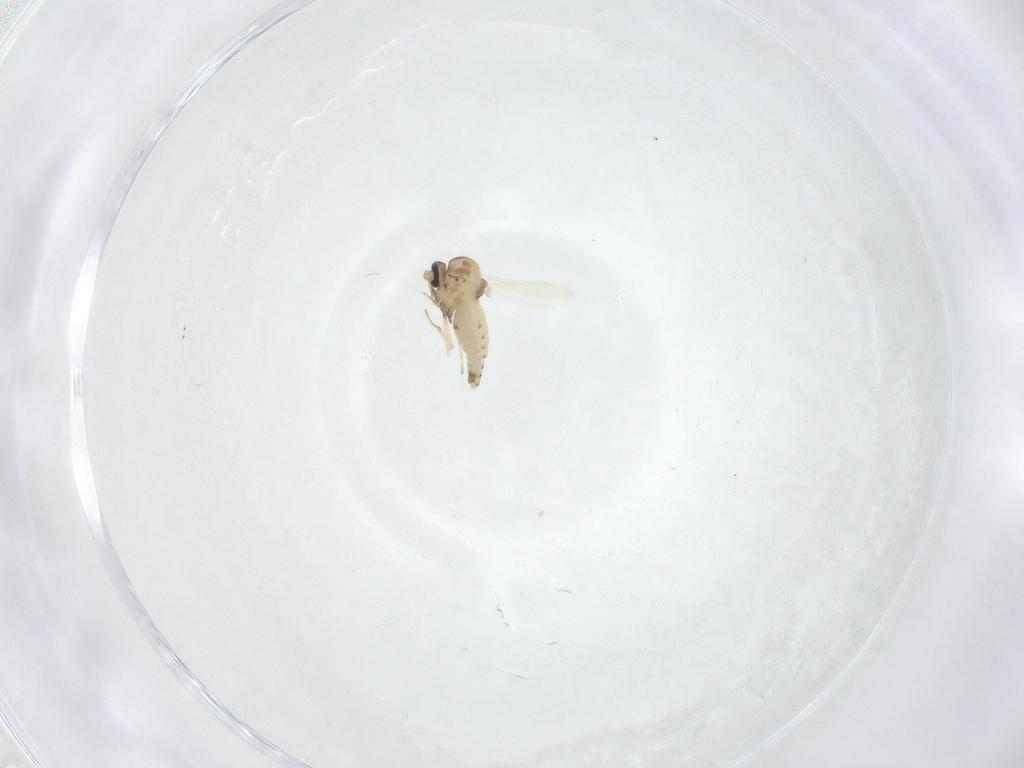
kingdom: Animalia
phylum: Arthropoda
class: Insecta
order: Diptera
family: Ceratopogonidae
